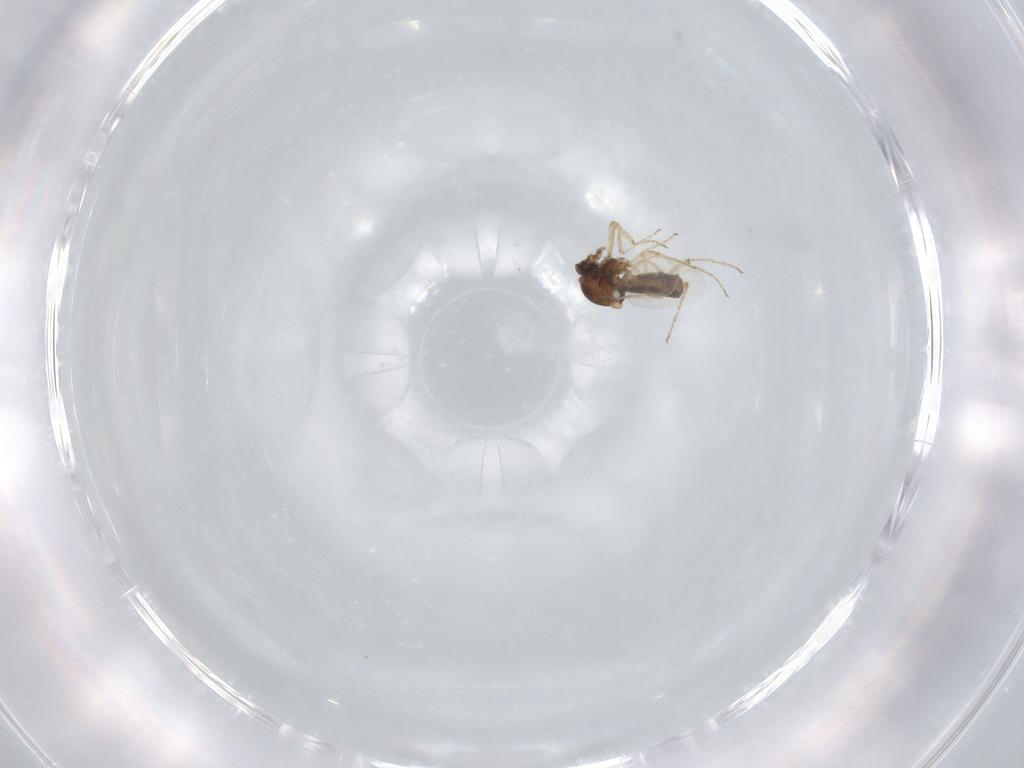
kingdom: Animalia
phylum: Arthropoda
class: Insecta
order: Diptera
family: Ceratopogonidae
